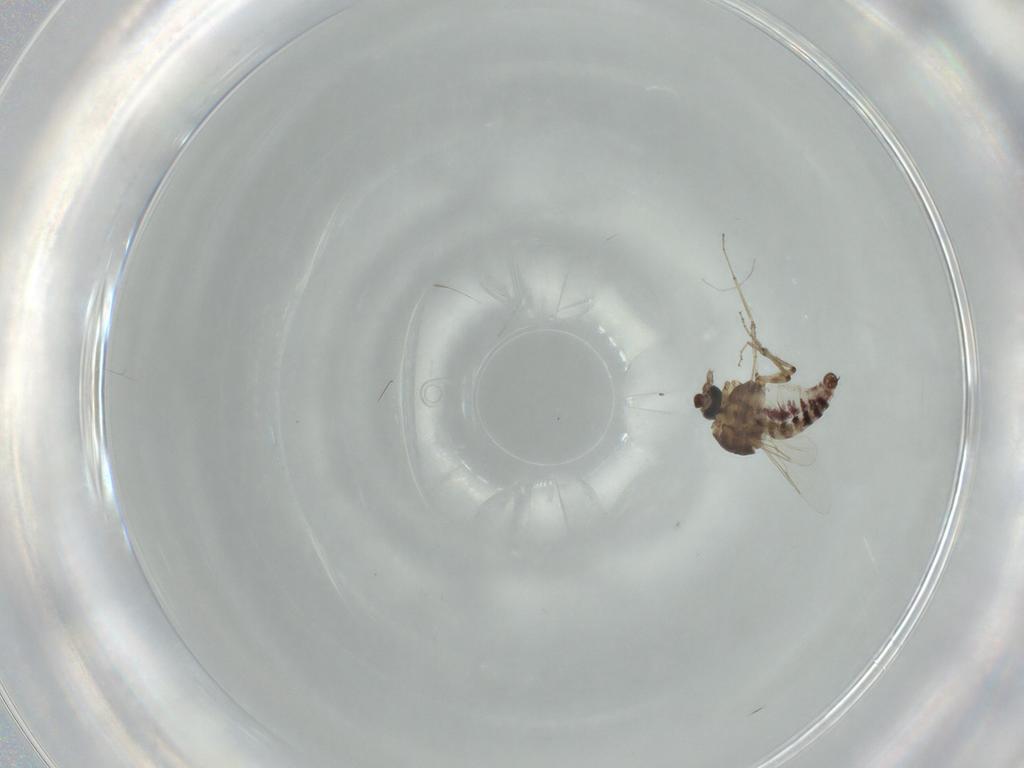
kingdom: Animalia
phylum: Arthropoda
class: Insecta
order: Diptera
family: Ceratopogonidae
